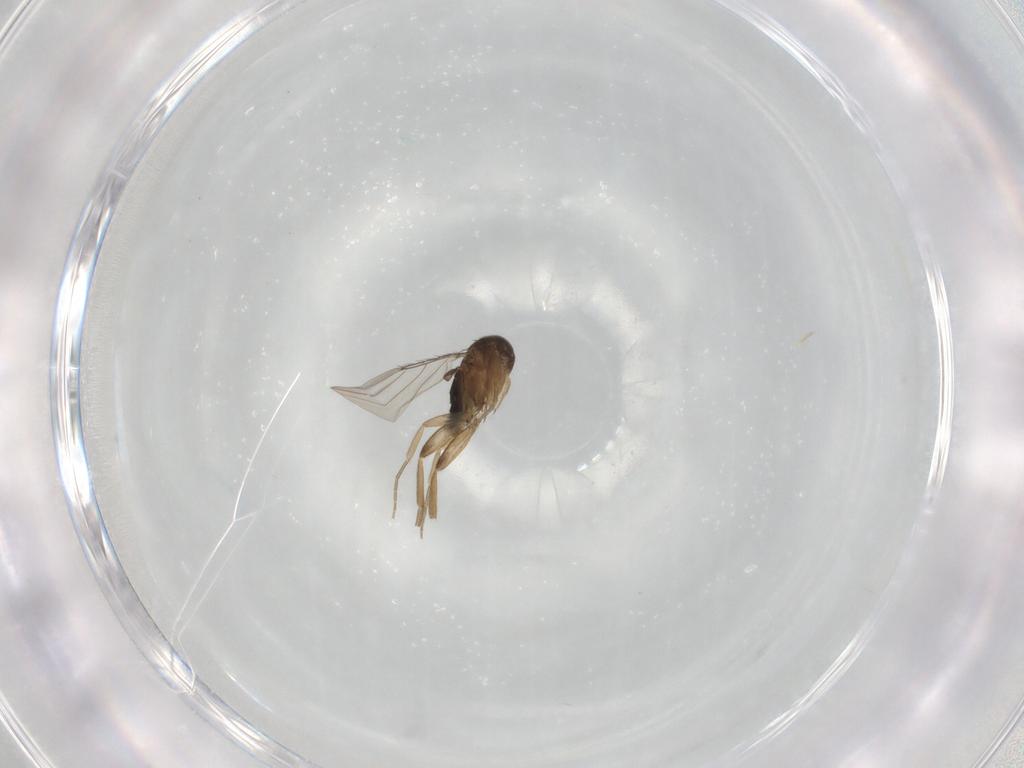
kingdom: Animalia
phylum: Arthropoda
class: Insecta
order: Diptera
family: Phoridae
